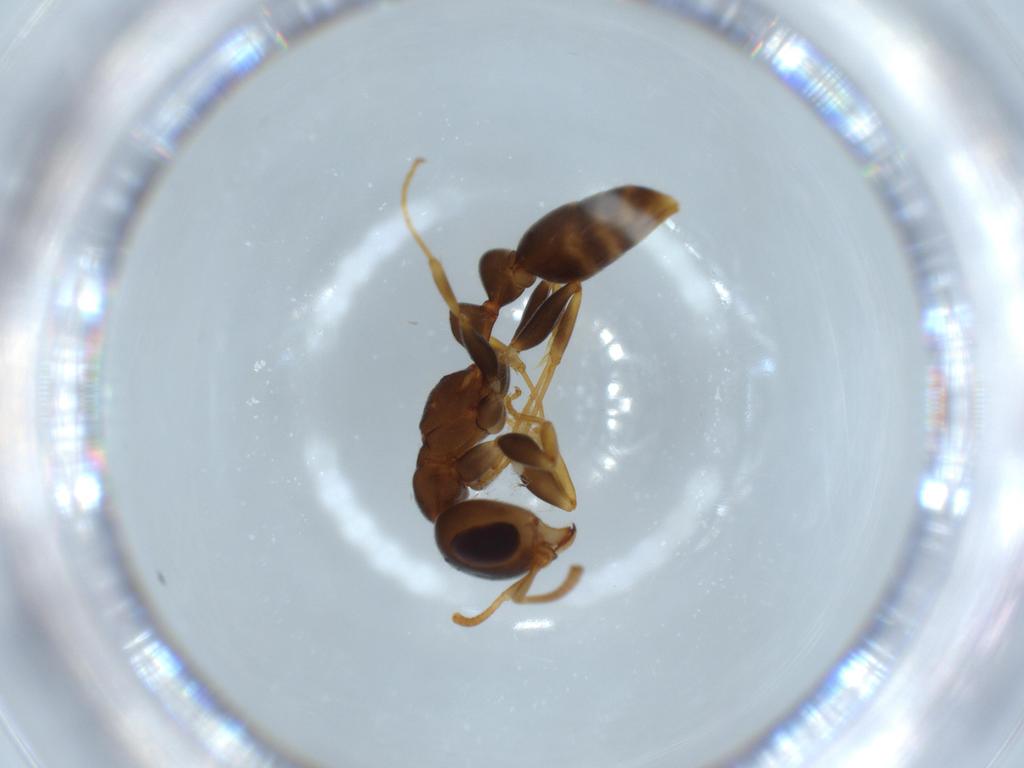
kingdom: Animalia
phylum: Arthropoda
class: Insecta
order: Hymenoptera
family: Formicidae
